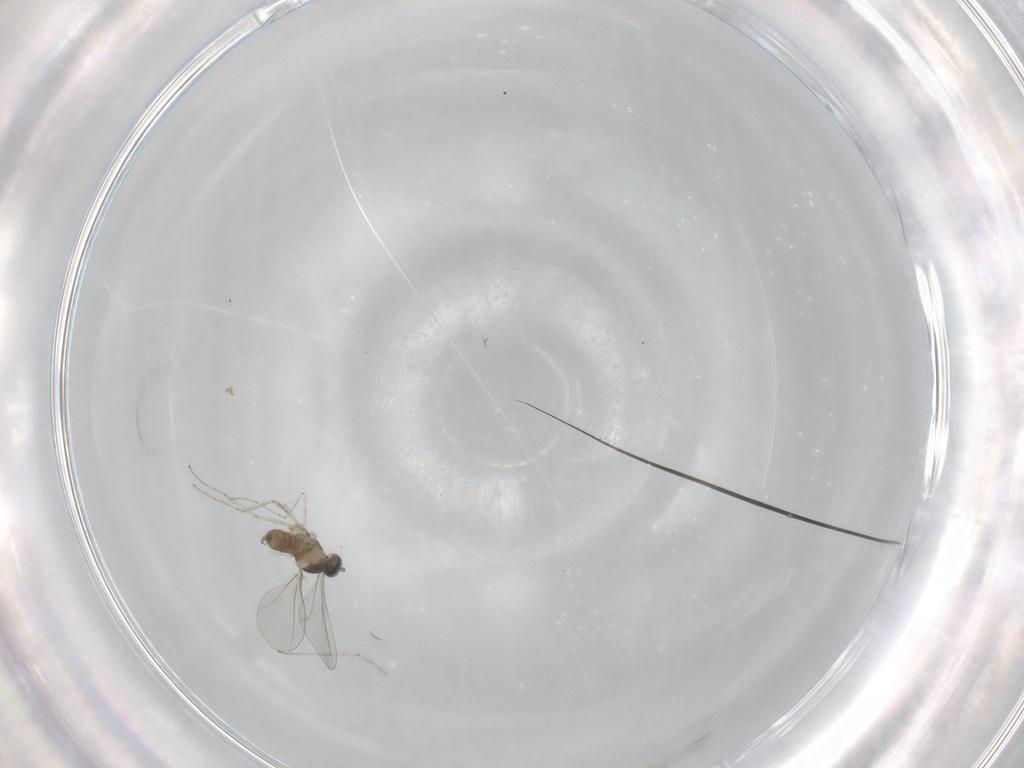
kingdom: Animalia
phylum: Arthropoda
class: Insecta
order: Diptera
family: Cecidomyiidae
